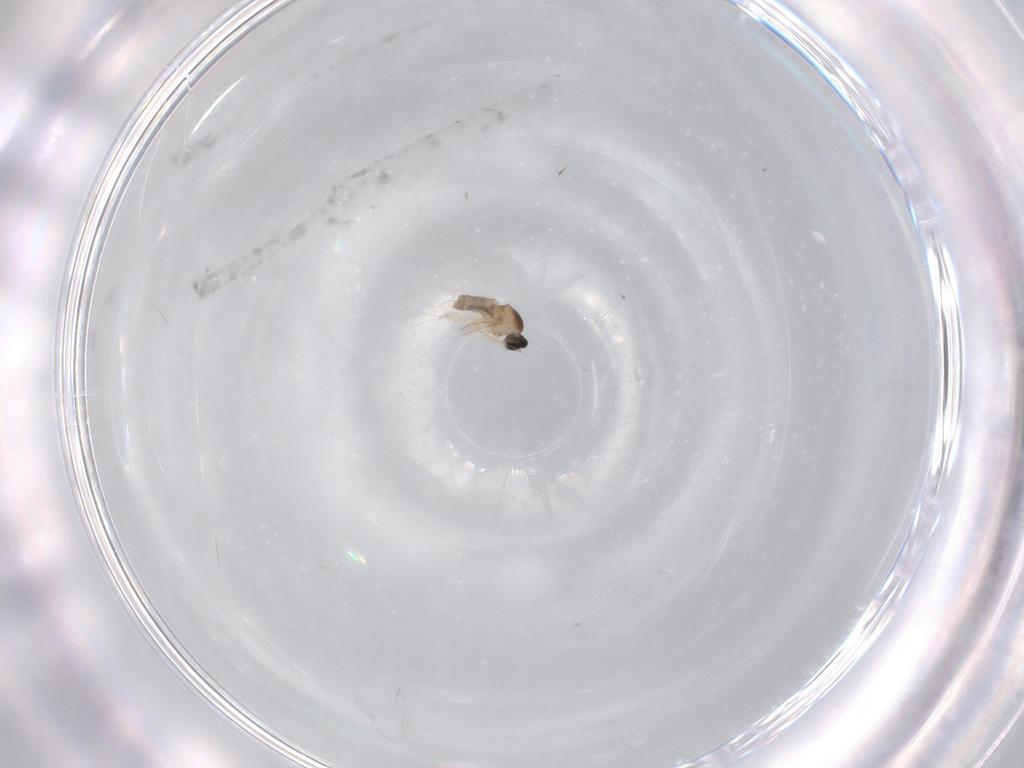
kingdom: Animalia
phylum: Arthropoda
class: Insecta
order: Diptera
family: Cecidomyiidae
